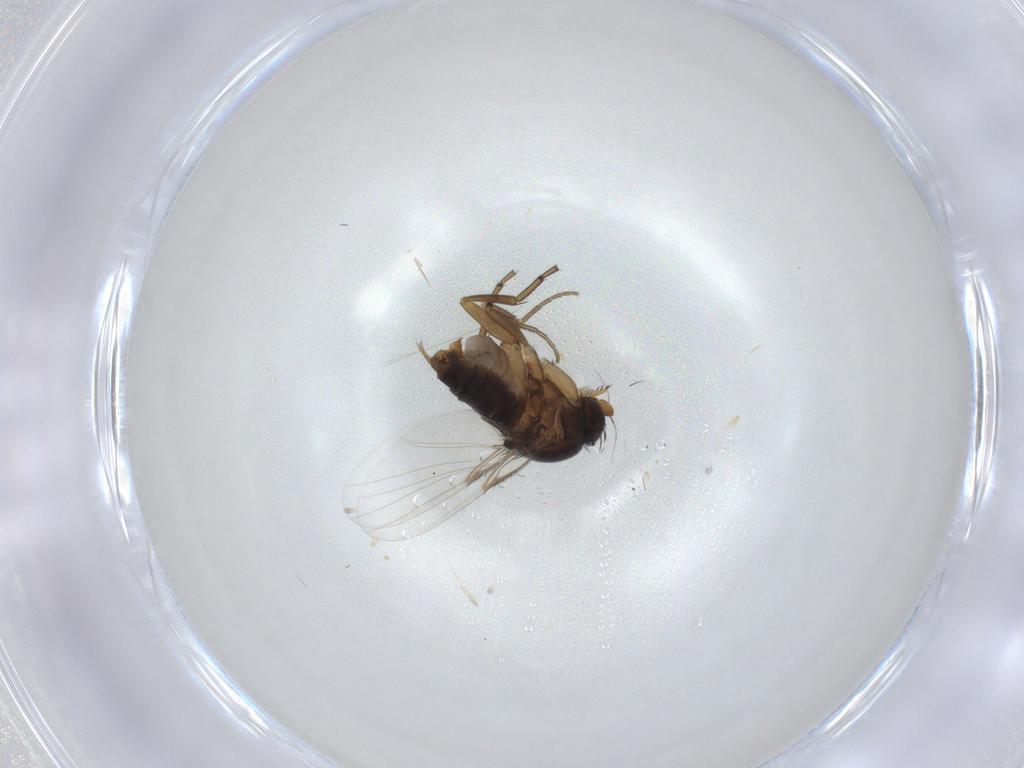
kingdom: Animalia
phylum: Arthropoda
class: Insecta
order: Diptera
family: Phoridae
